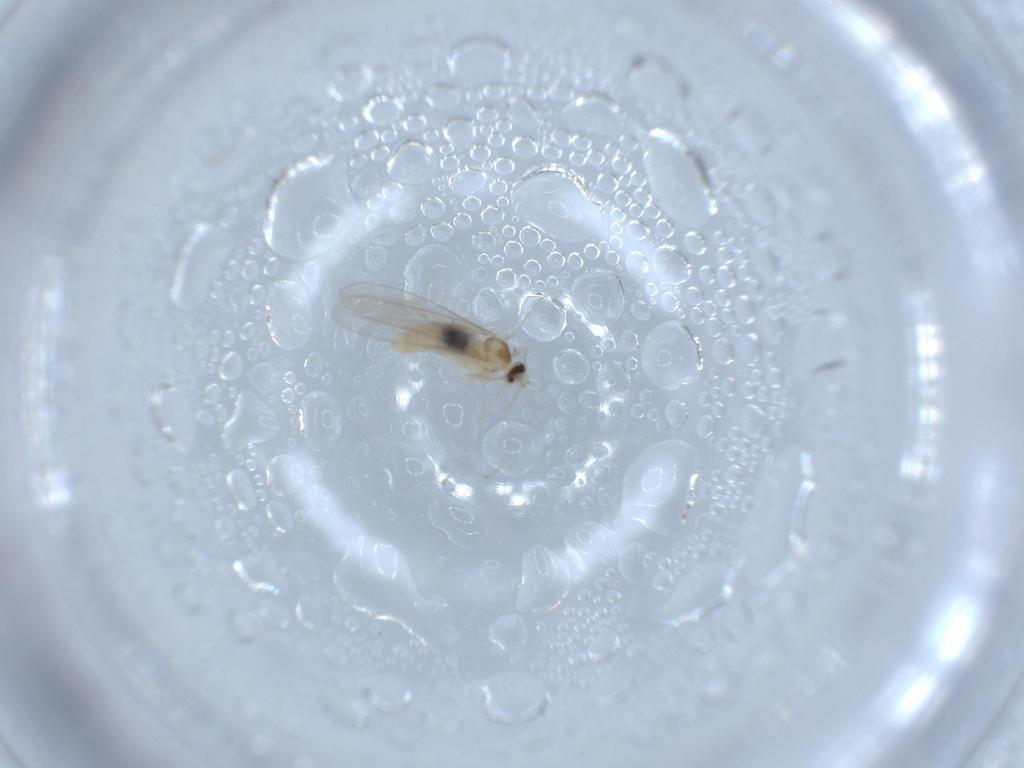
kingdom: Animalia
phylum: Arthropoda
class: Insecta
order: Diptera
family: Cecidomyiidae
